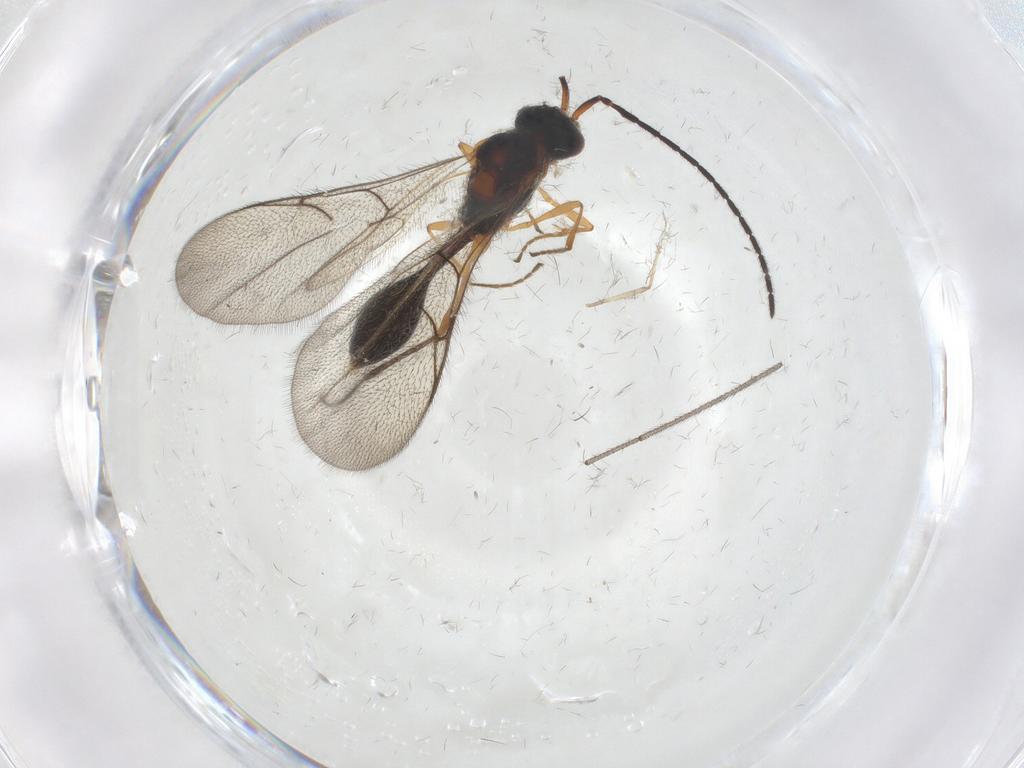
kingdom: Animalia
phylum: Arthropoda
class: Insecta
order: Hymenoptera
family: Diapriidae
